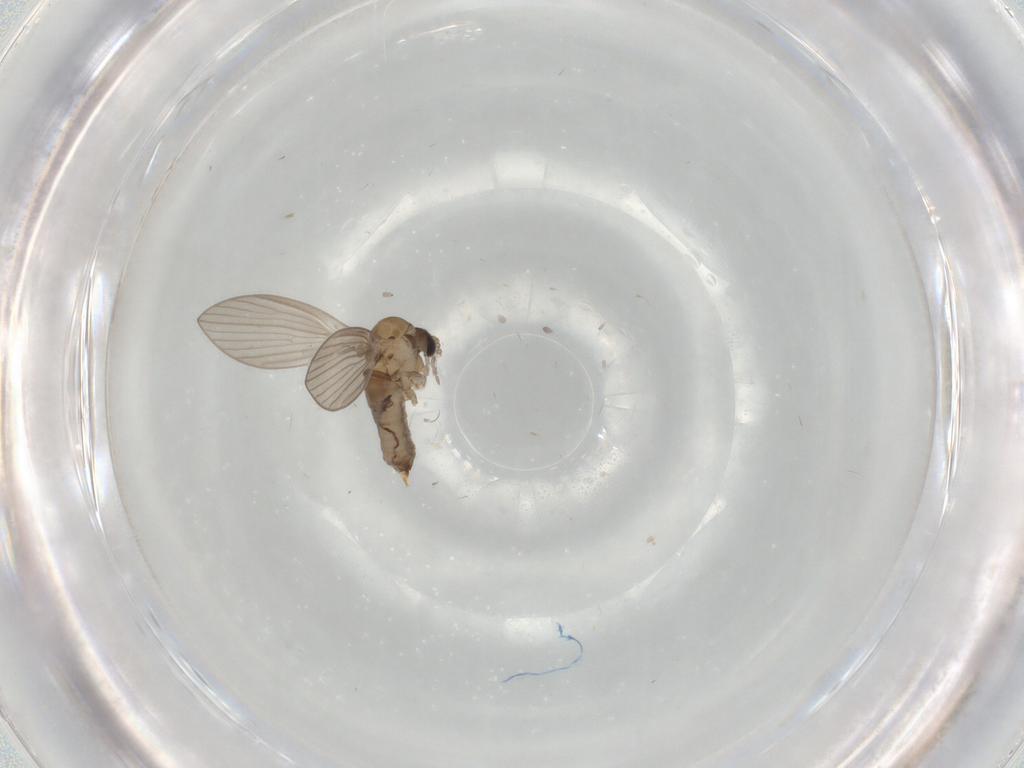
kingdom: Animalia
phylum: Arthropoda
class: Insecta
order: Diptera
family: Psychodidae
